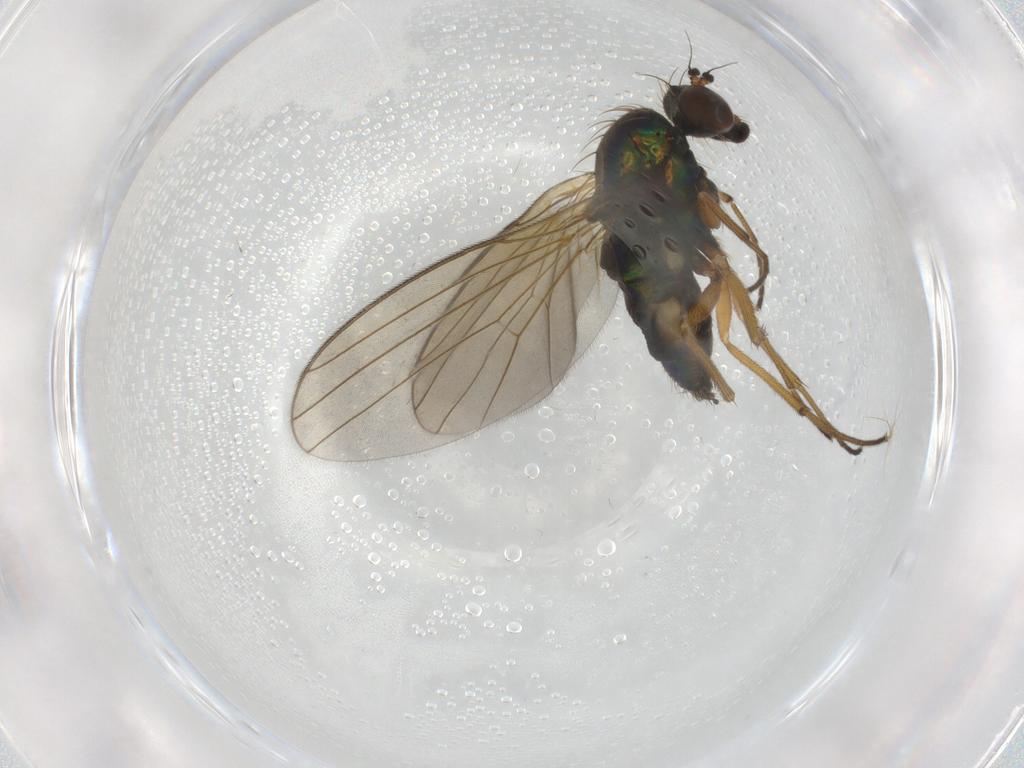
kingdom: Animalia
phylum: Arthropoda
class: Insecta
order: Diptera
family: Dolichopodidae
